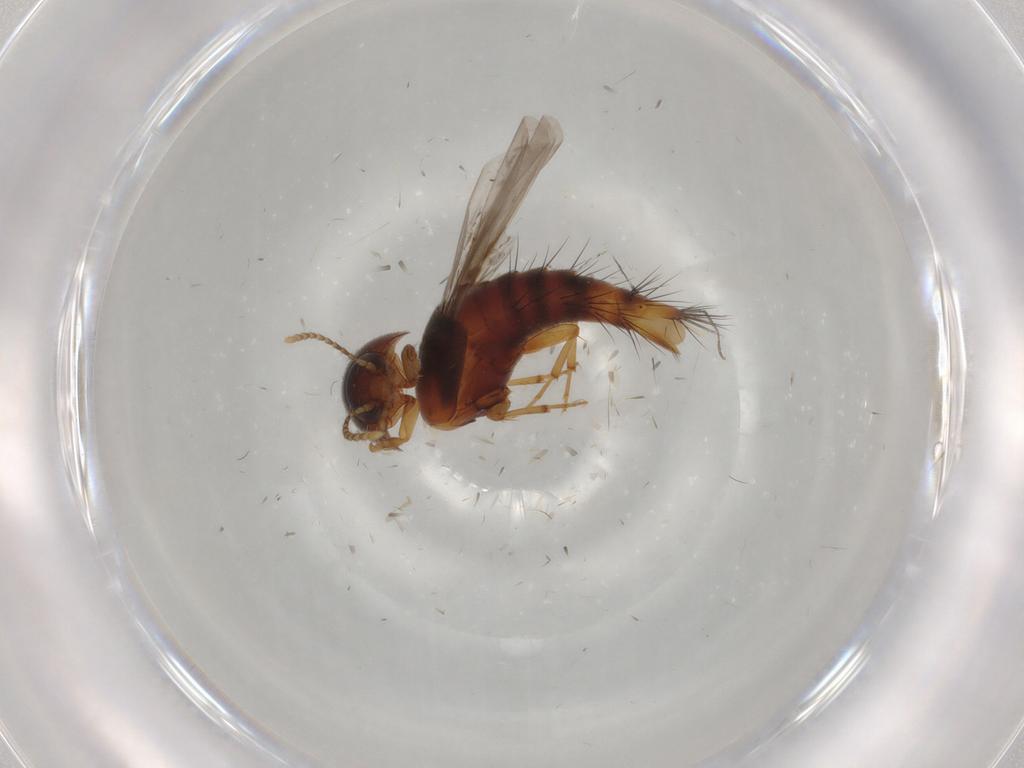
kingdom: Animalia
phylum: Arthropoda
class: Insecta
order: Coleoptera
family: Staphylinidae
